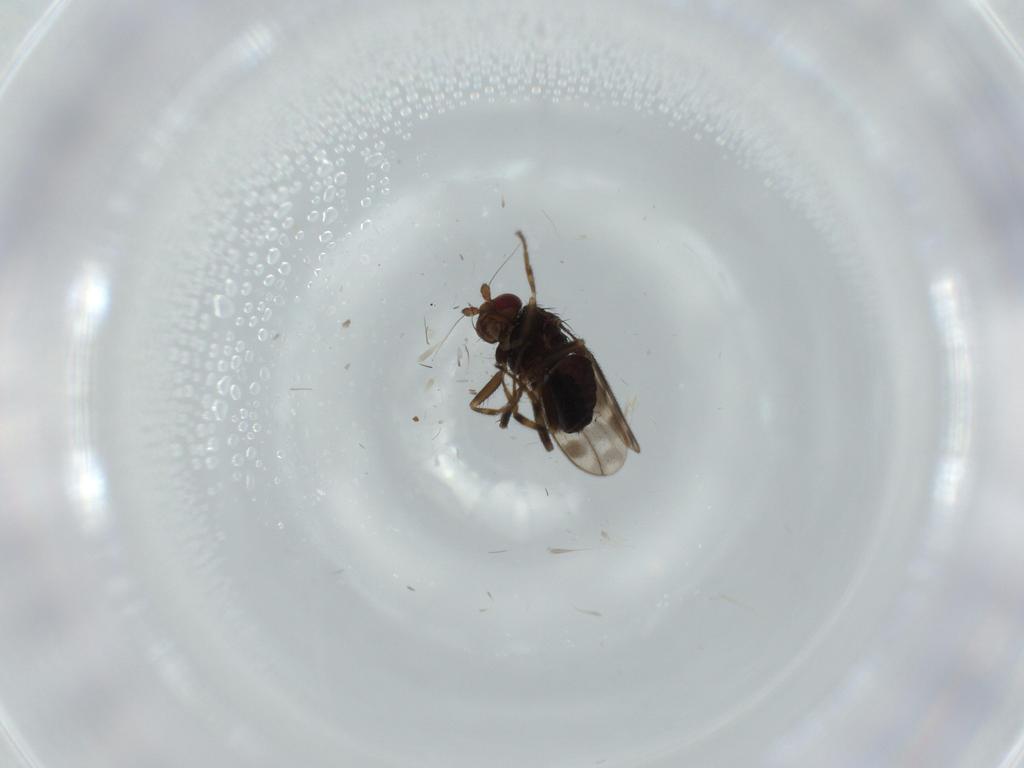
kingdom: Animalia
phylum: Arthropoda
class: Insecta
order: Diptera
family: Sphaeroceridae
